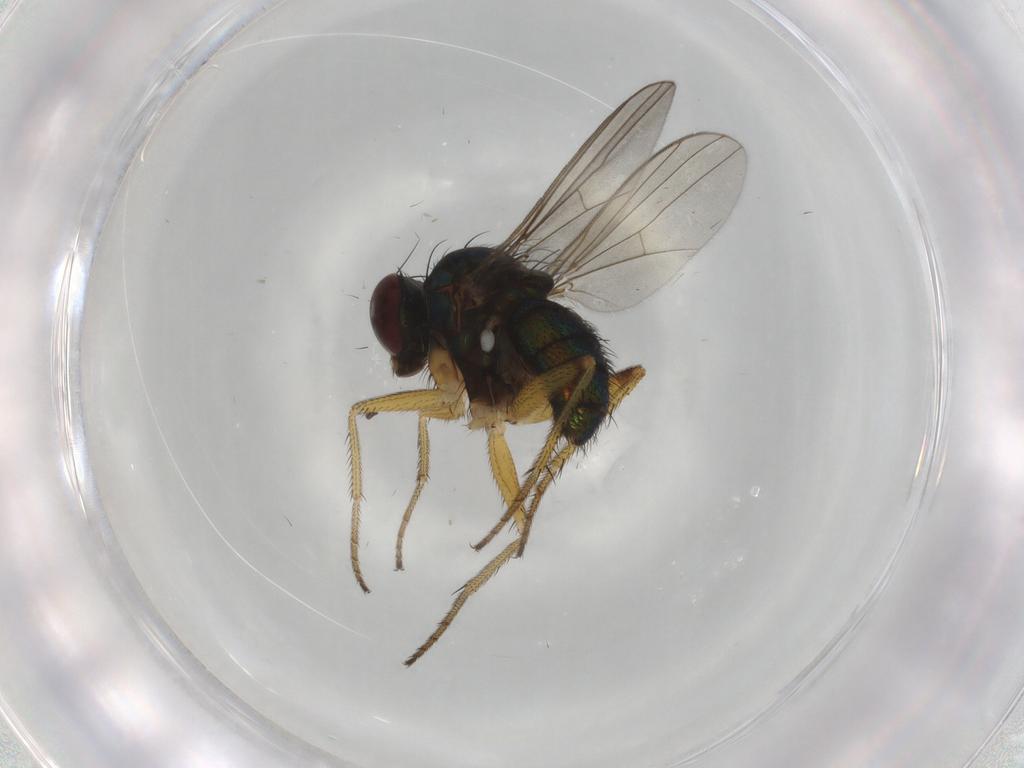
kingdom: Animalia
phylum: Arthropoda
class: Insecta
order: Diptera
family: Dolichopodidae
